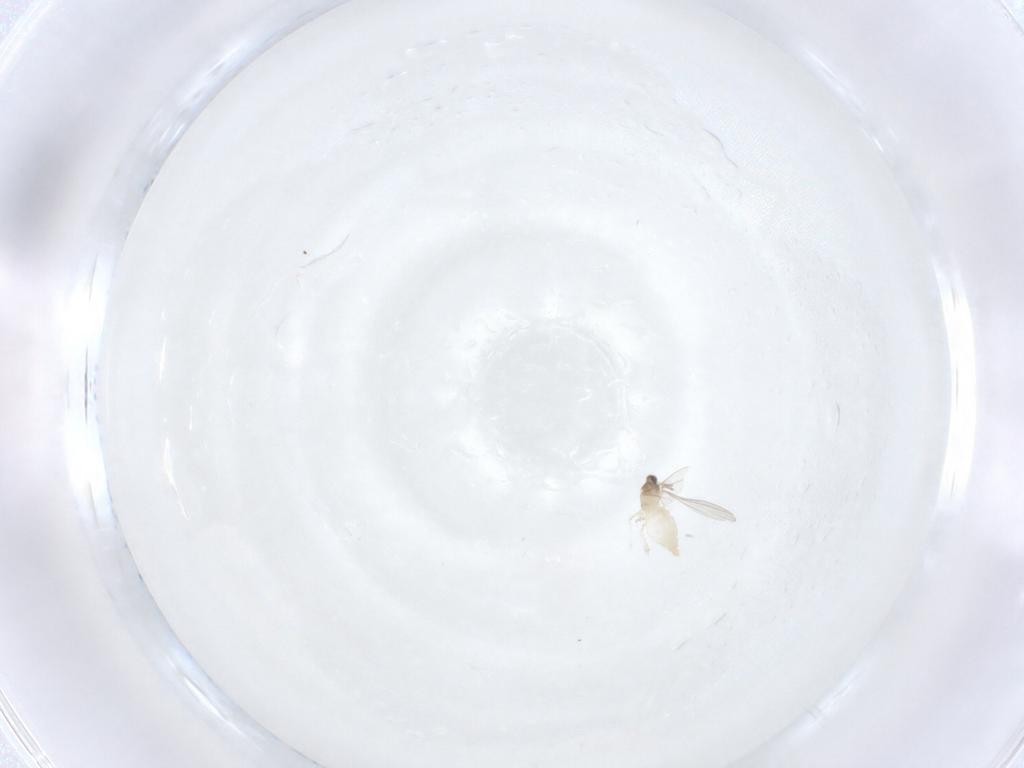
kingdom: Animalia
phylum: Arthropoda
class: Insecta
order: Diptera
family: Cecidomyiidae
